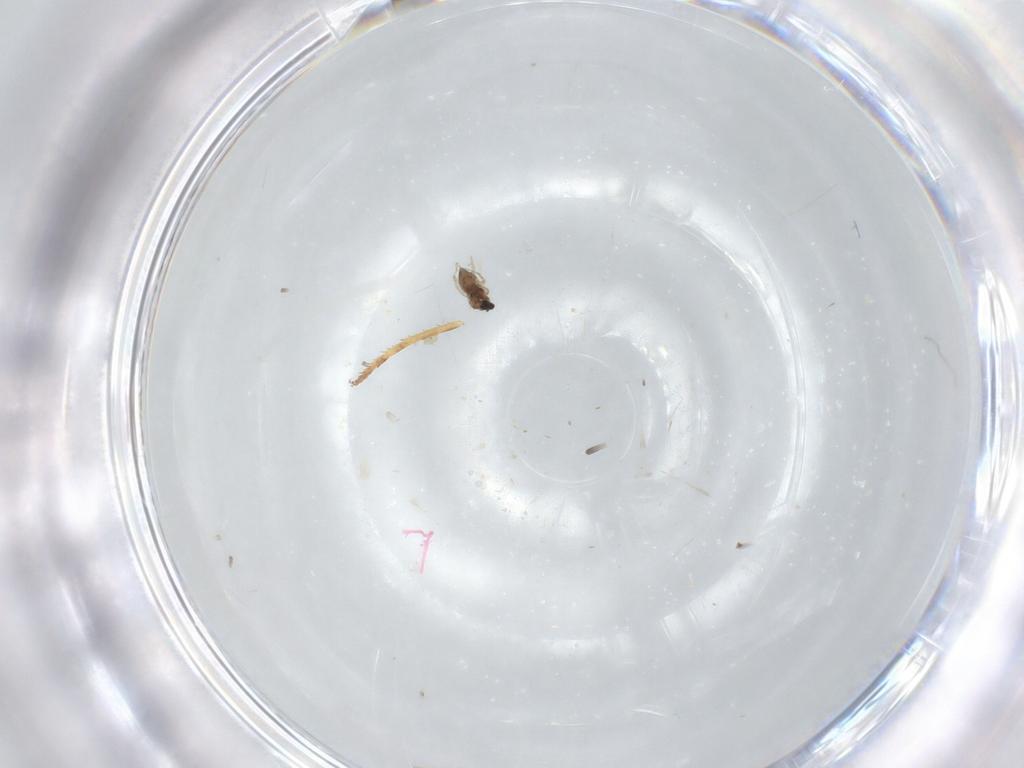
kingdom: Animalia
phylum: Arthropoda
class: Insecta
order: Diptera
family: Cecidomyiidae
